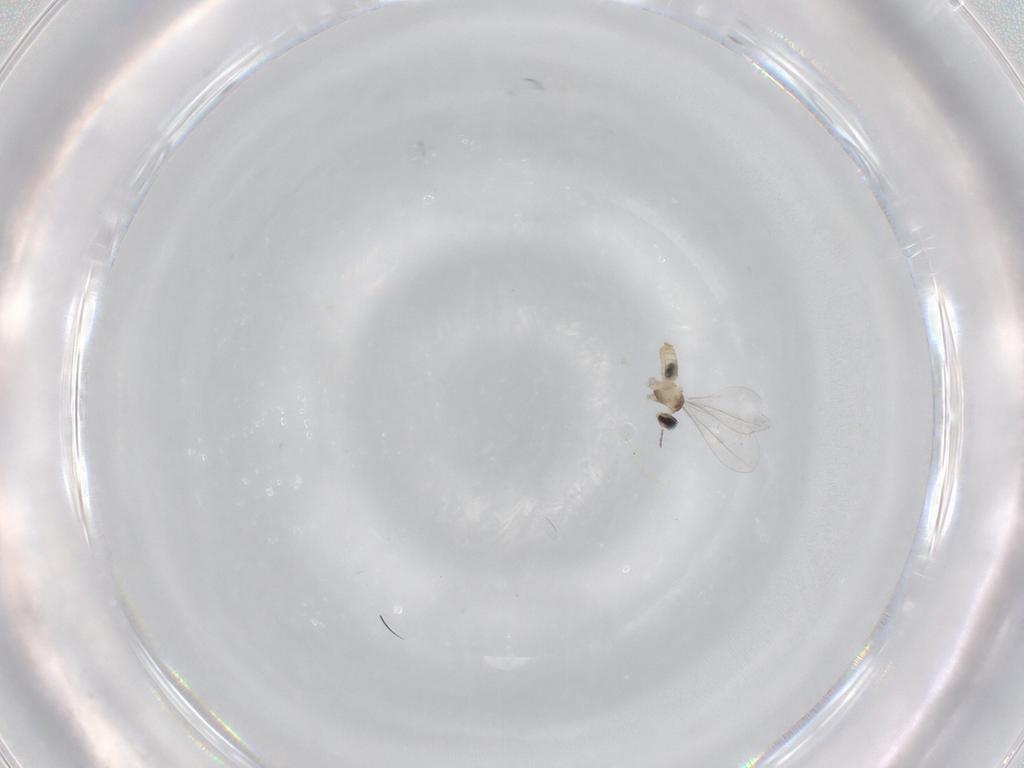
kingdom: Animalia
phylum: Arthropoda
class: Insecta
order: Diptera
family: Cecidomyiidae
